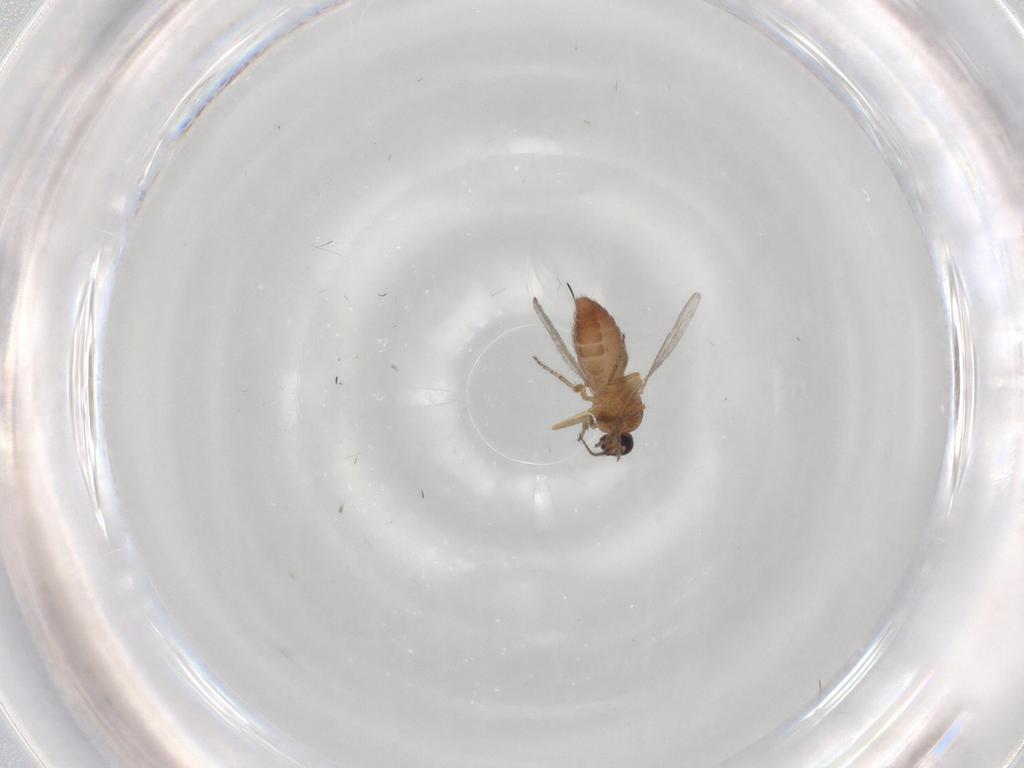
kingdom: Animalia
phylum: Arthropoda
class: Insecta
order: Diptera
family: Ceratopogonidae
